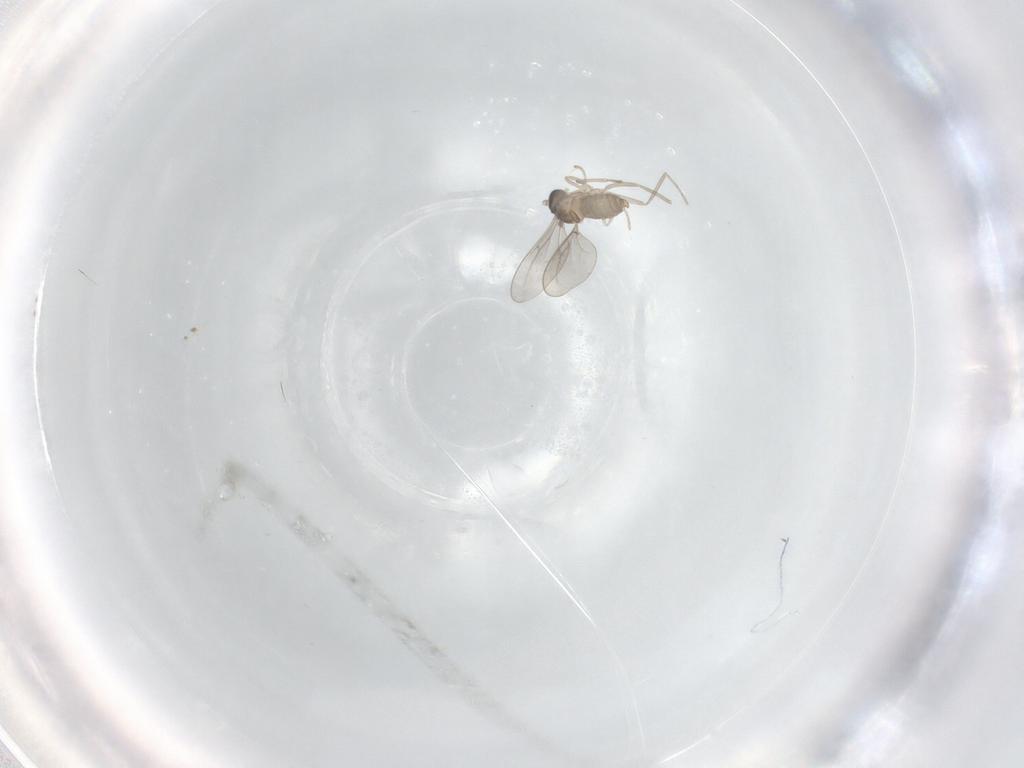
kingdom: Animalia
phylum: Arthropoda
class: Insecta
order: Diptera
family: Cecidomyiidae
